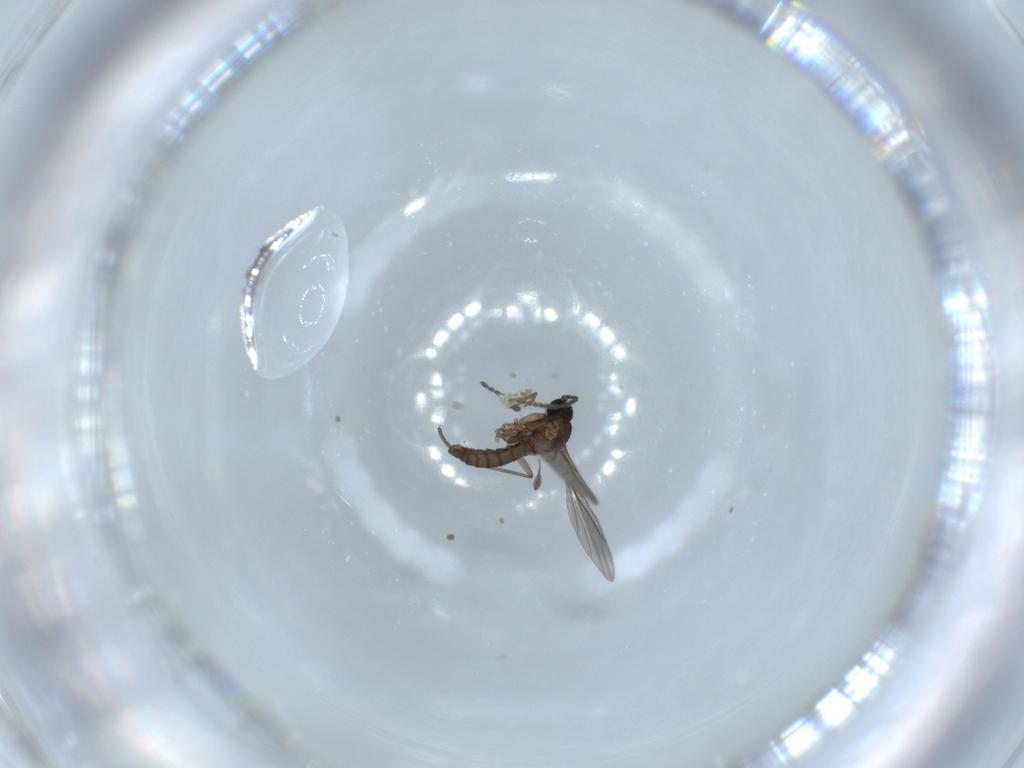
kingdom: Animalia
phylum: Arthropoda
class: Insecta
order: Diptera
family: Sciaridae
